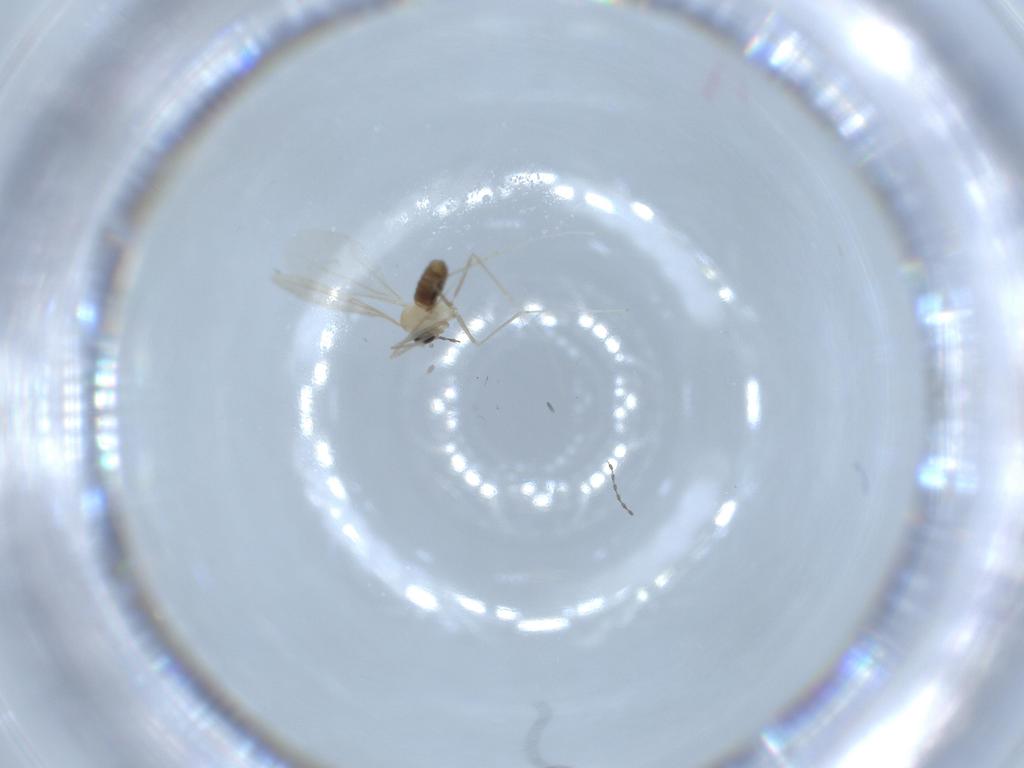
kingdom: Animalia
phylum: Arthropoda
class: Insecta
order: Diptera
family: Cecidomyiidae
